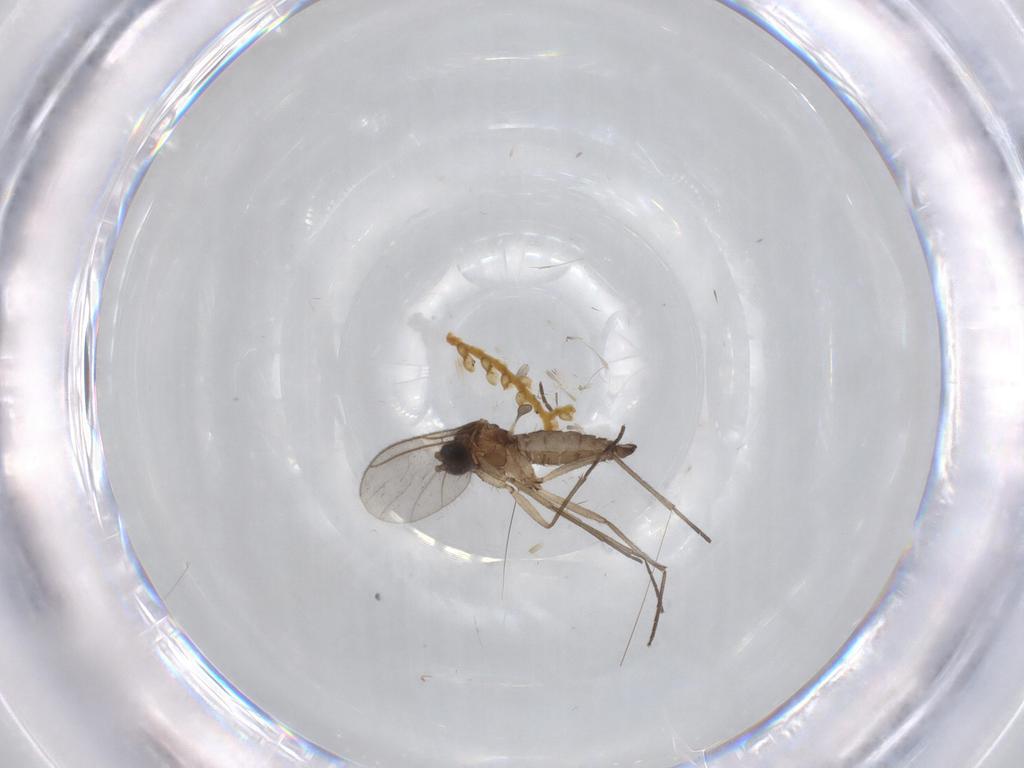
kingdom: Animalia
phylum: Arthropoda
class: Insecta
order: Diptera
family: Sciaridae
